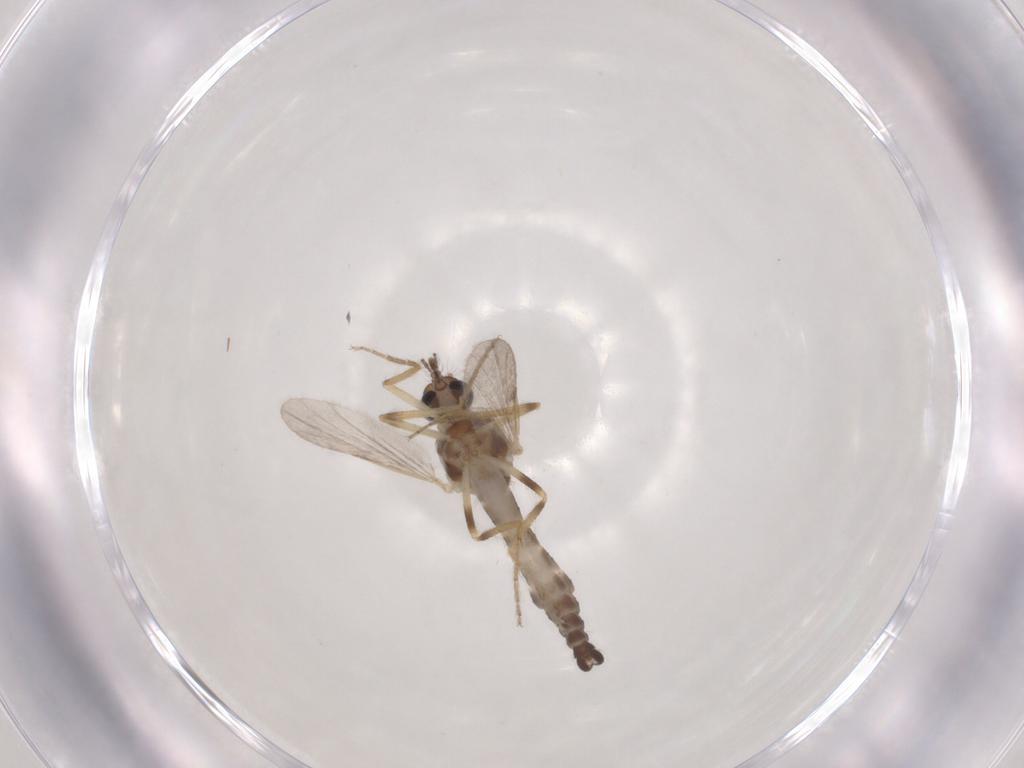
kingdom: Animalia
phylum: Arthropoda
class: Insecta
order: Diptera
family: Ceratopogonidae
